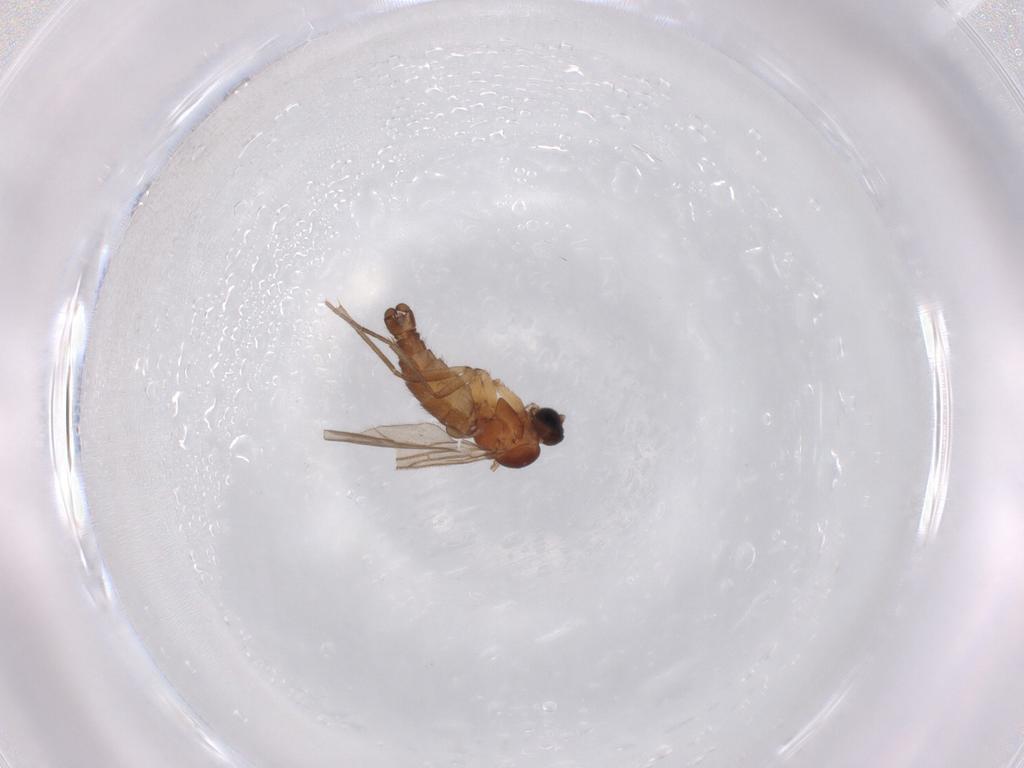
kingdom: Animalia
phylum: Arthropoda
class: Insecta
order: Diptera
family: Sciaridae
